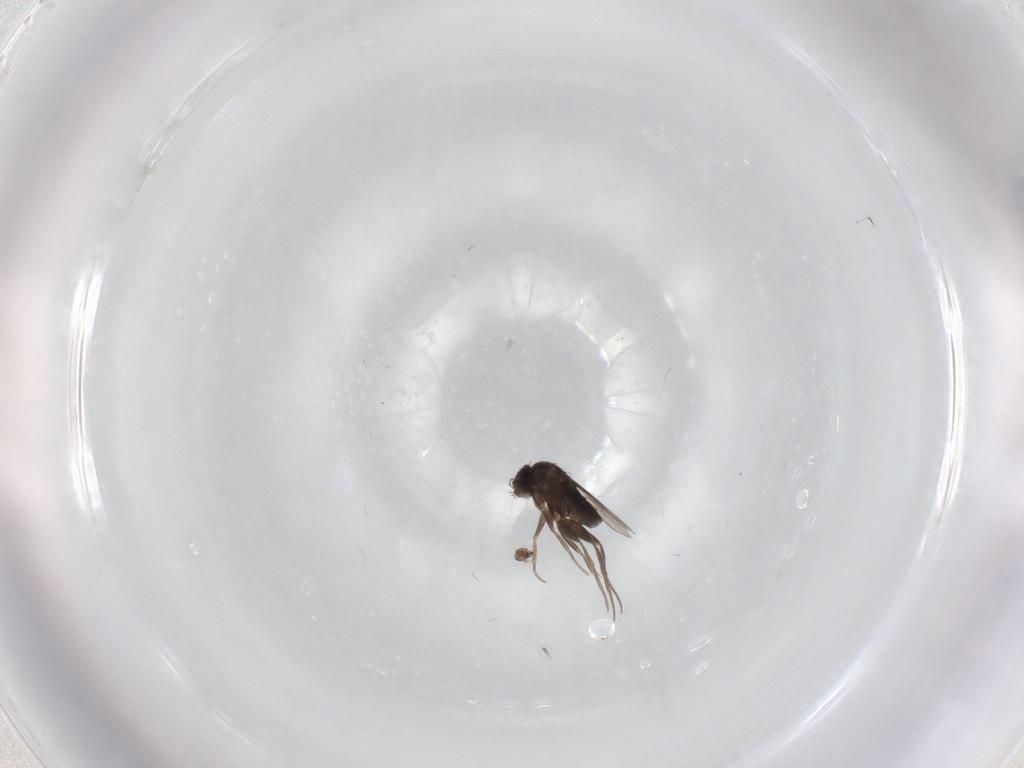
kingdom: Animalia
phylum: Arthropoda
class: Insecta
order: Diptera
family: Phoridae
